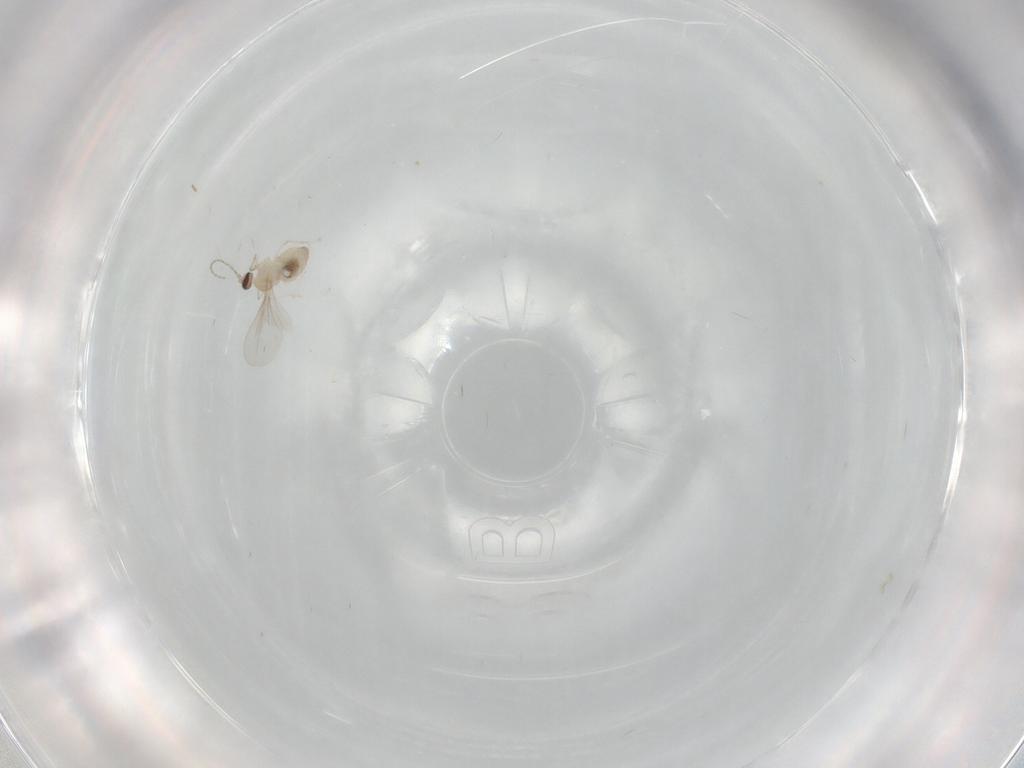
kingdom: Animalia
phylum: Arthropoda
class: Insecta
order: Diptera
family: Cecidomyiidae
